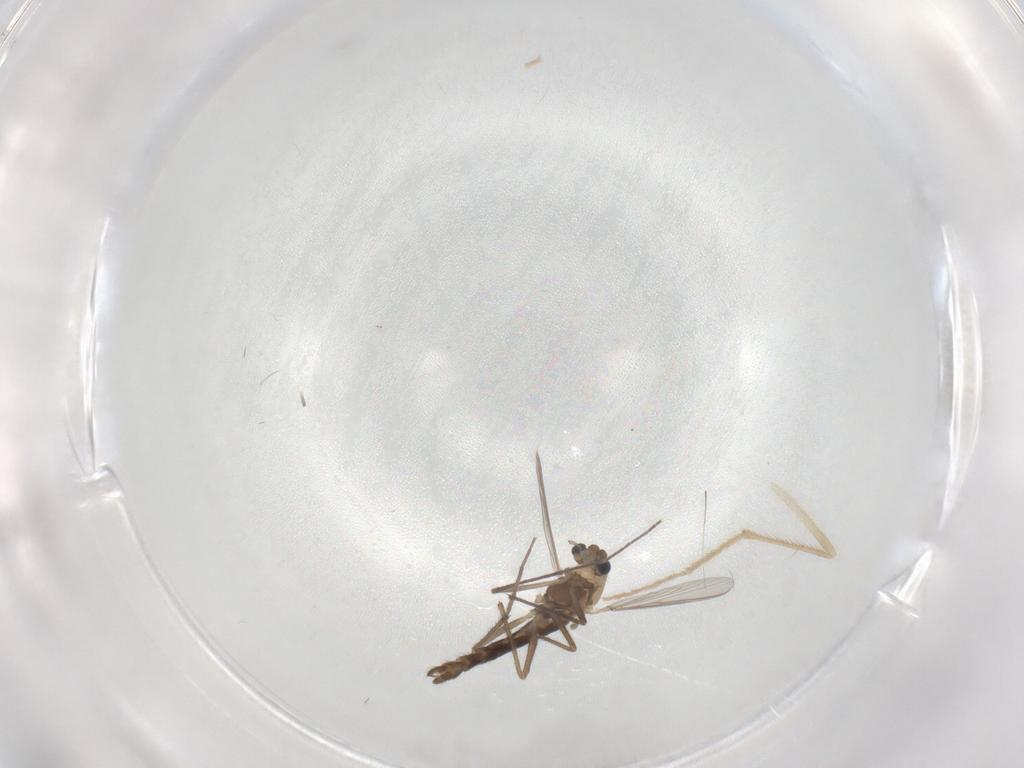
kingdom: Animalia
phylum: Arthropoda
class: Insecta
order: Diptera
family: Chironomidae
